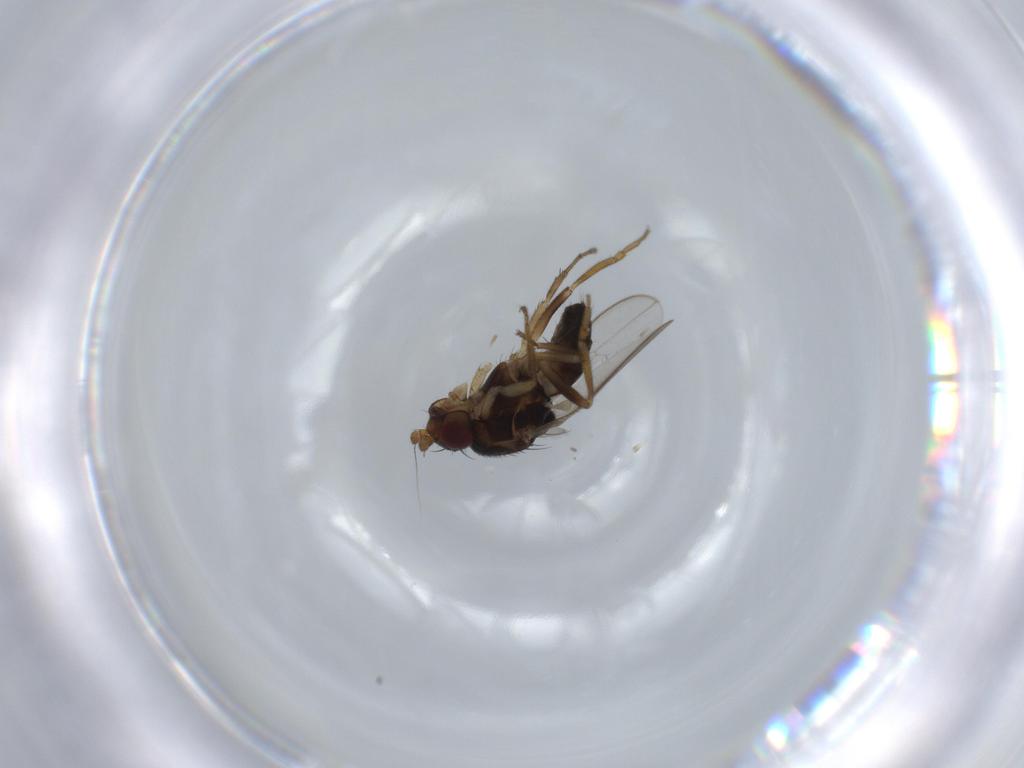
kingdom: Animalia
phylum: Arthropoda
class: Insecta
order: Diptera
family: Sphaeroceridae
